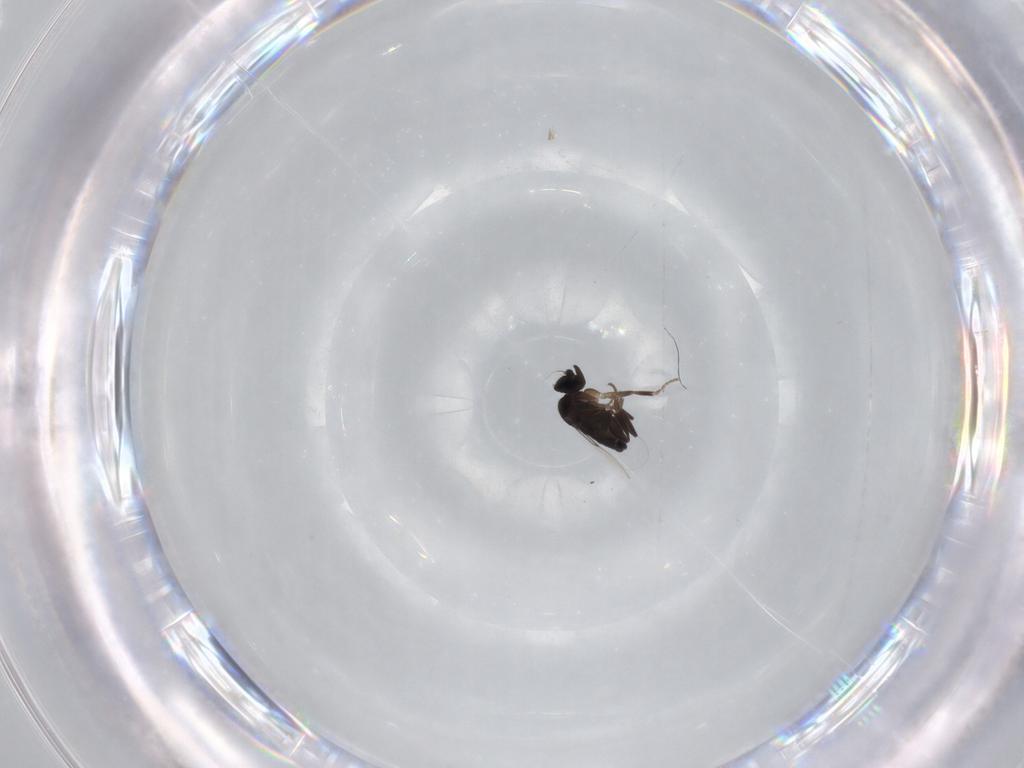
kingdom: Animalia
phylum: Arthropoda
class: Insecta
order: Diptera
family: Phoridae
